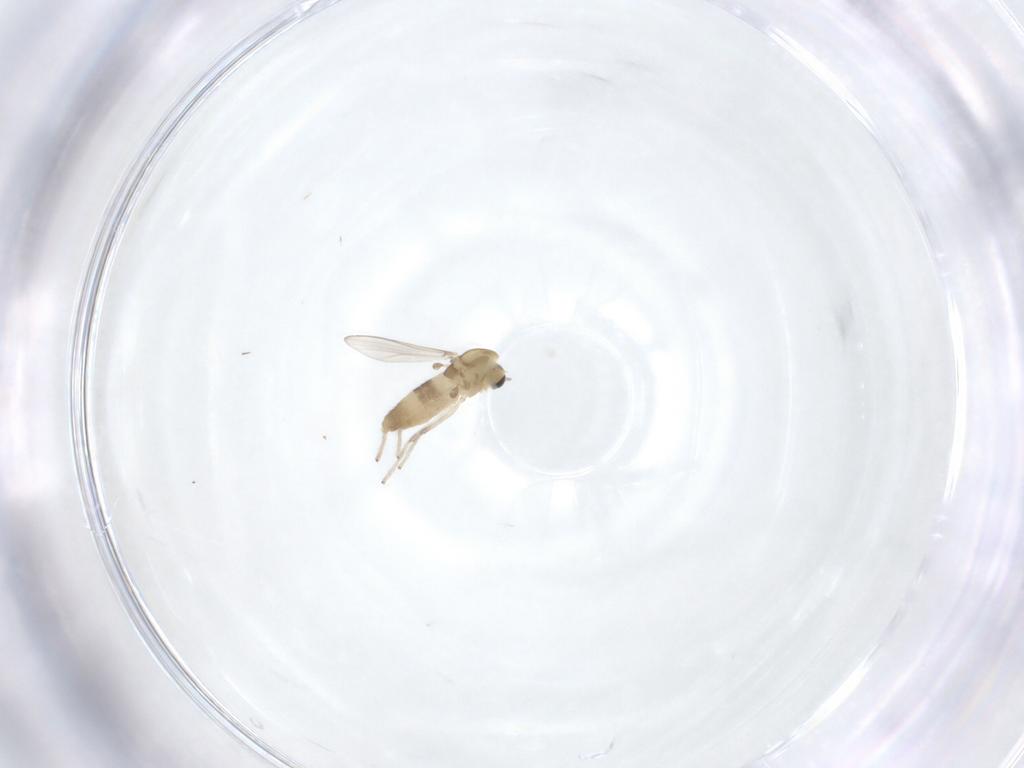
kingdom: Animalia
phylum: Arthropoda
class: Insecta
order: Diptera
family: Chironomidae
